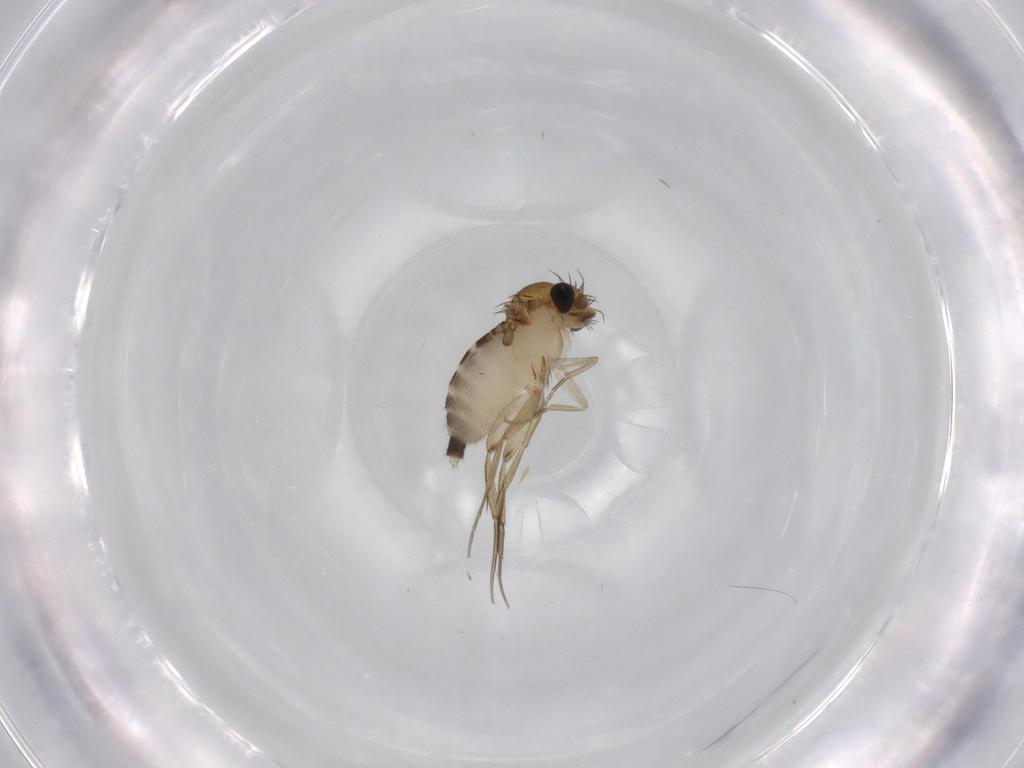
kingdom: Animalia
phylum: Arthropoda
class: Insecta
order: Diptera
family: Phoridae
